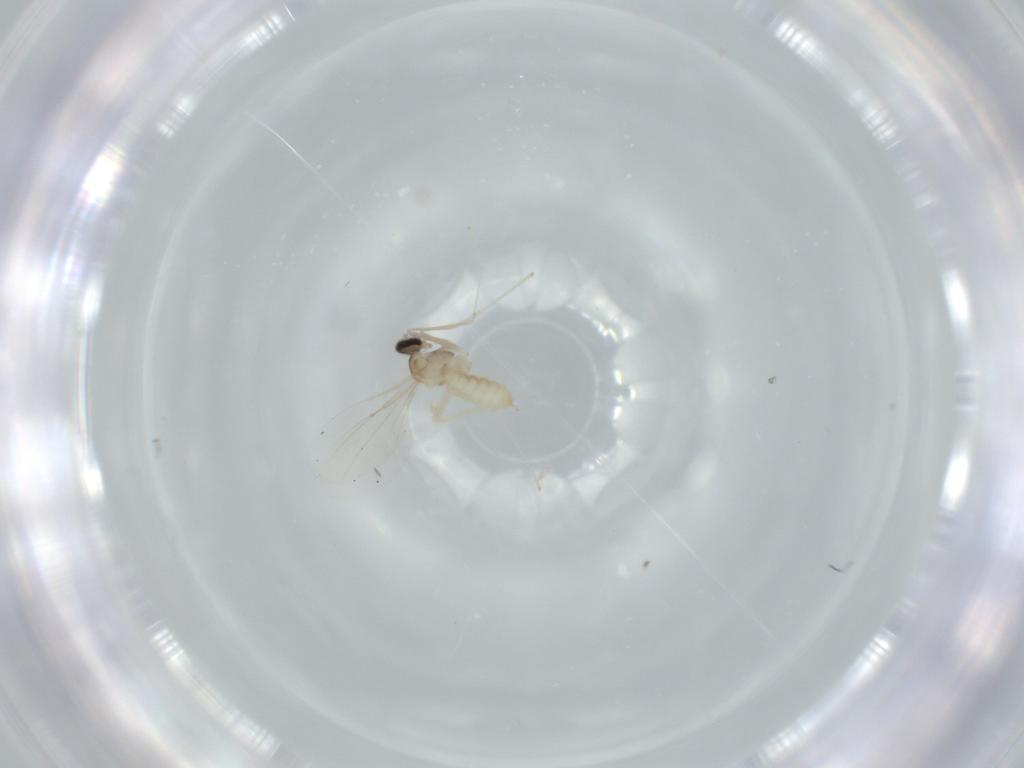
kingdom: Animalia
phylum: Arthropoda
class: Insecta
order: Diptera
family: Cecidomyiidae
